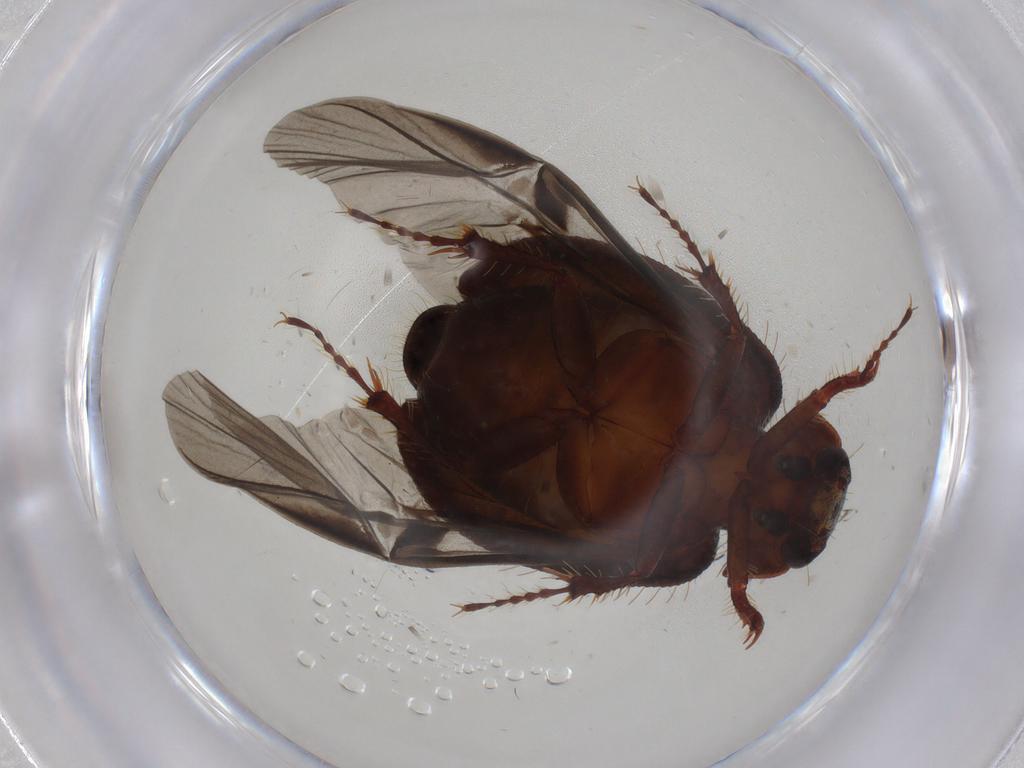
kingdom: Animalia
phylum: Arthropoda
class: Insecta
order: Coleoptera
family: Hybosoridae
